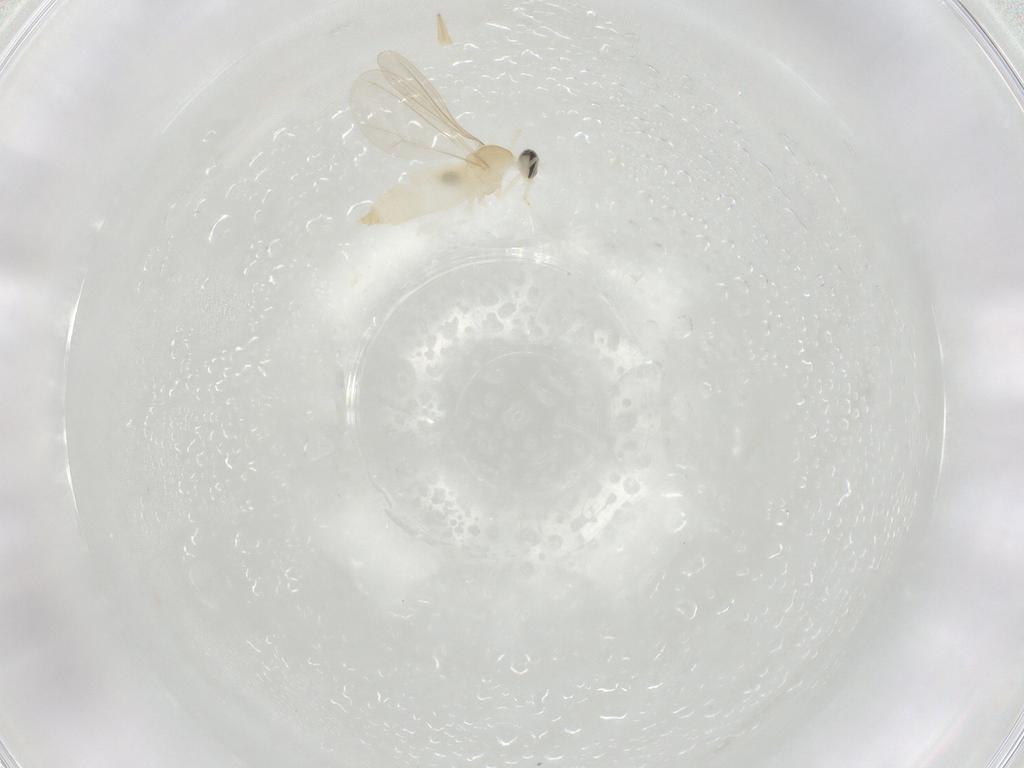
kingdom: Animalia
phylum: Arthropoda
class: Insecta
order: Diptera
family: Cecidomyiidae
